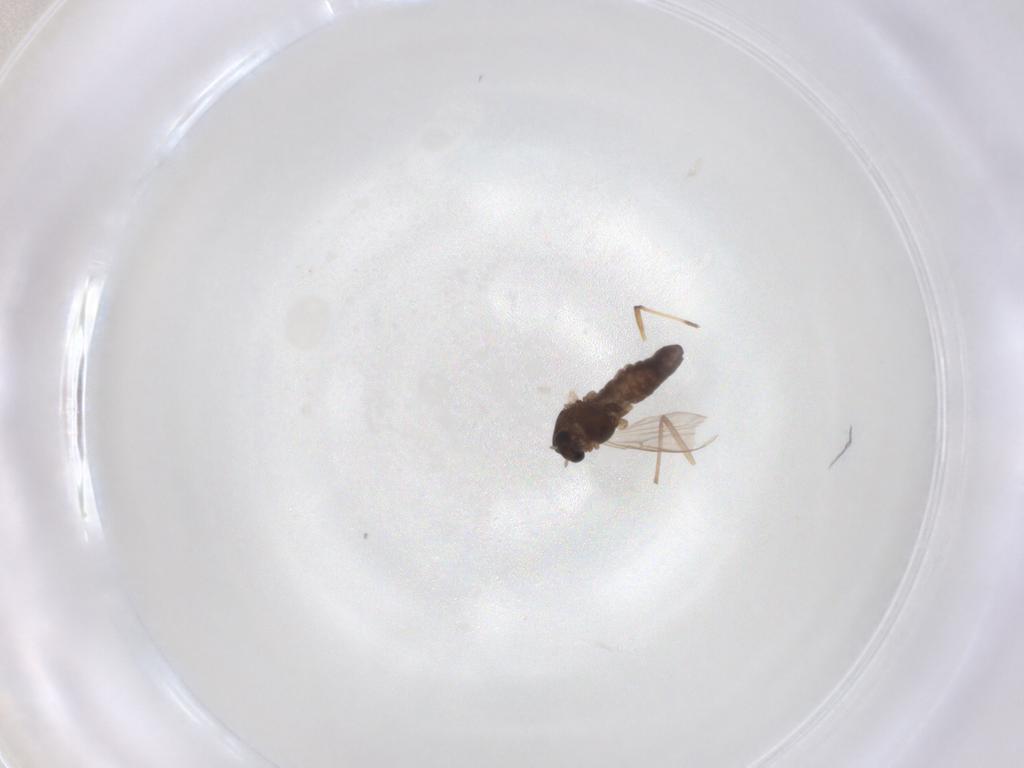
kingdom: Animalia
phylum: Arthropoda
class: Insecta
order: Diptera
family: Chironomidae
